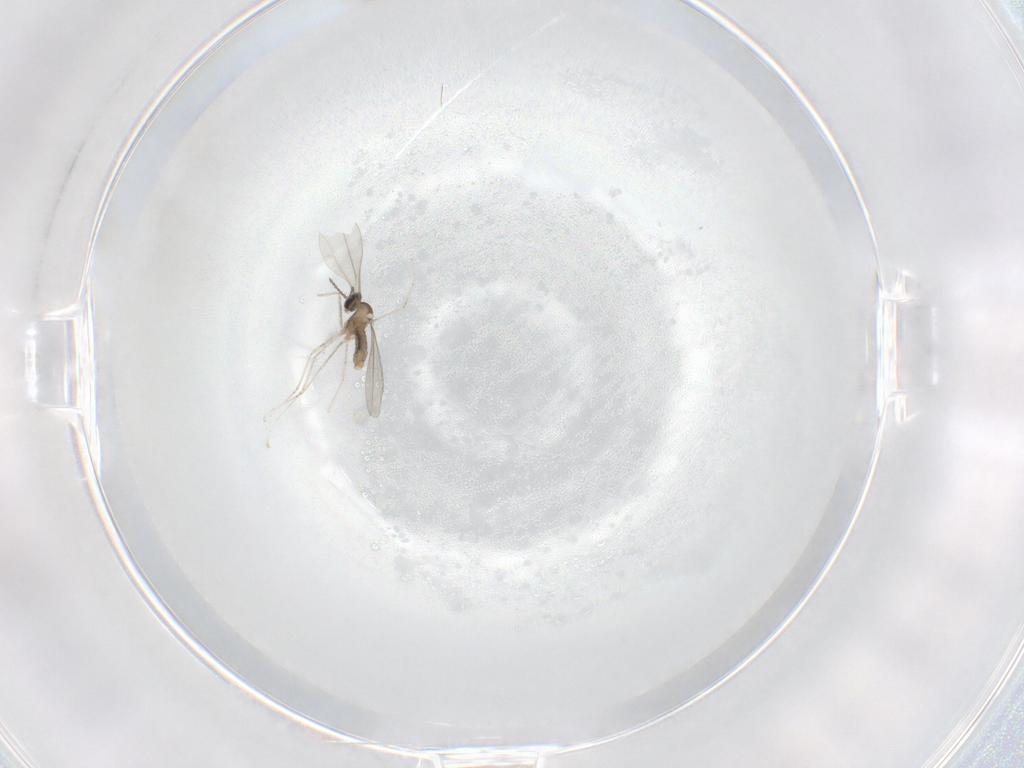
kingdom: Animalia
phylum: Arthropoda
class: Insecta
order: Diptera
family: Cecidomyiidae
